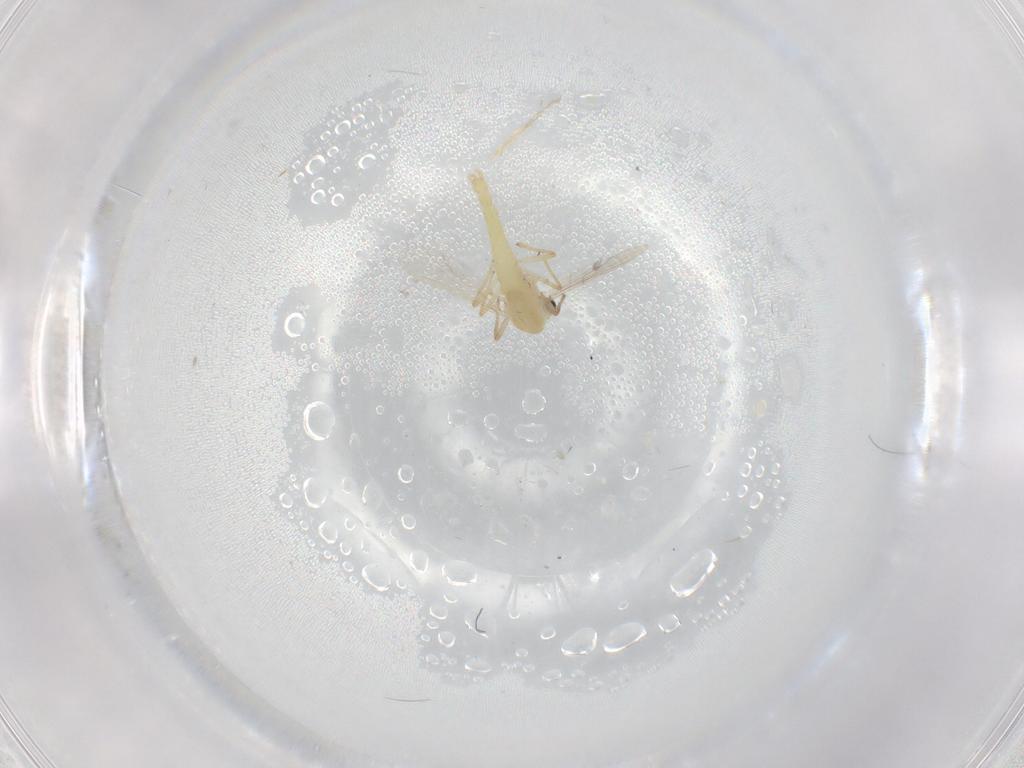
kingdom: Animalia
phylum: Arthropoda
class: Insecta
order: Diptera
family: Chironomidae
